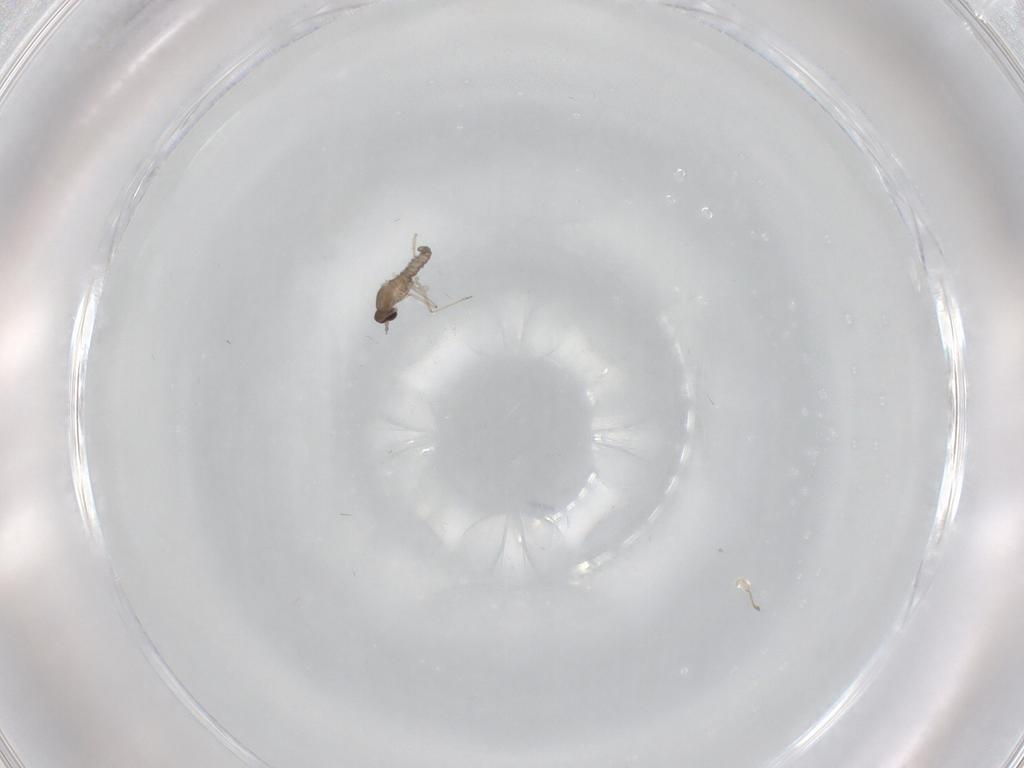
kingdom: Animalia
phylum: Arthropoda
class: Insecta
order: Diptera
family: Cecidomyiidae
